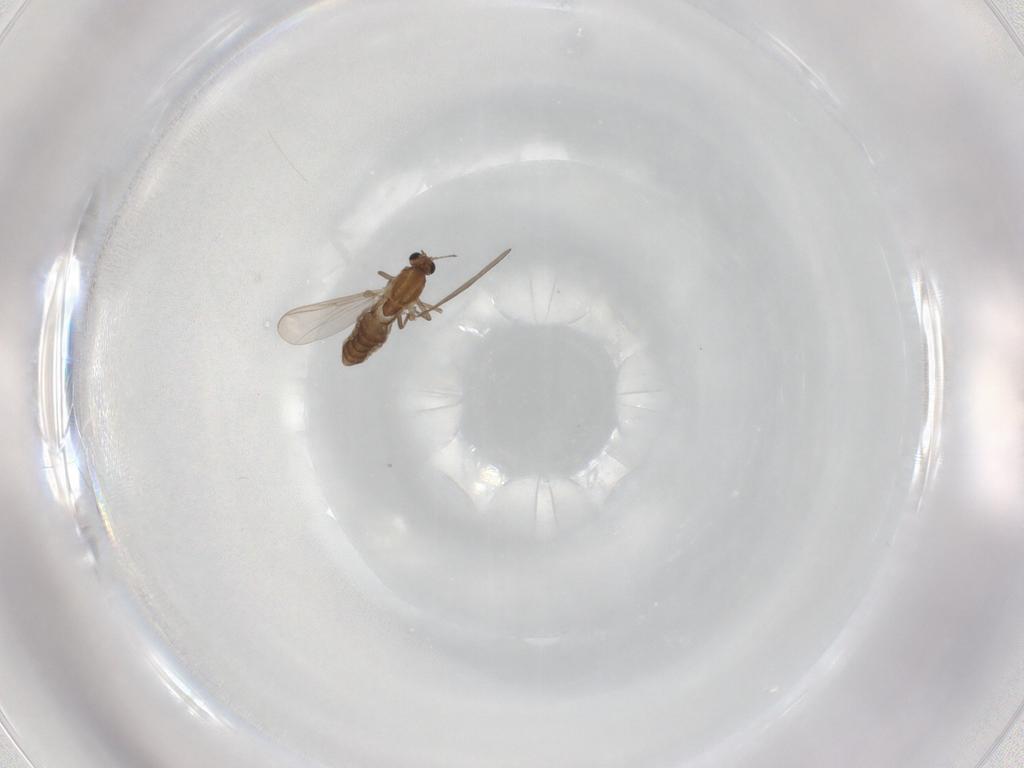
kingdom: Animalia
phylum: Arthropoda
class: Insecta
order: Diptera
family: Chironomidae
